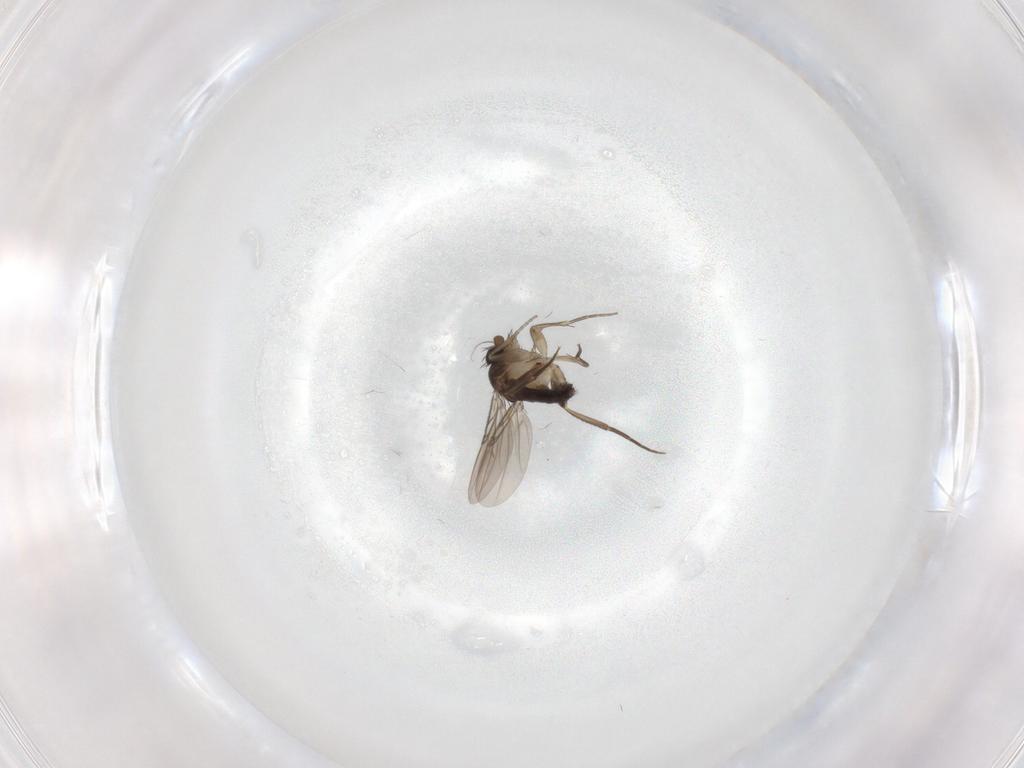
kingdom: Animalia
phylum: Arthropoda
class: Insecta
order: Diptera
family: Phoridae
